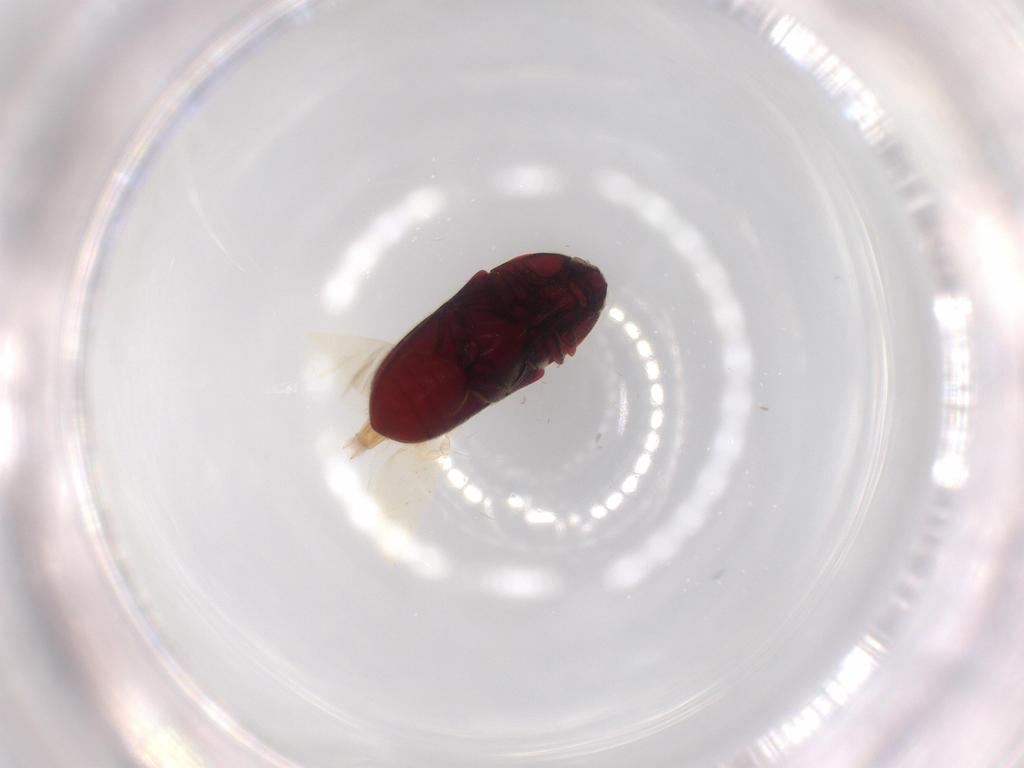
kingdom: Animalia
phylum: Arthropoda
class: Insecta
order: Coleoptera
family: Throscidae
